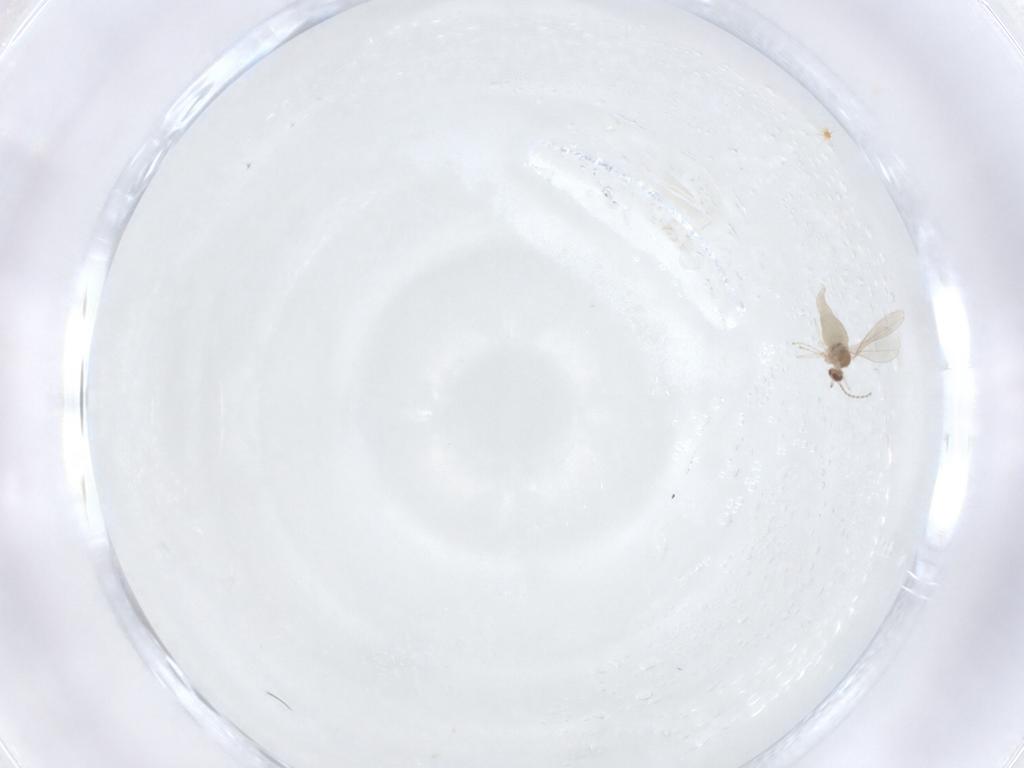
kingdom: Animalia
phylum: Arthropoda
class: Insecta
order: Diptera
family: Cecidomyiidae
